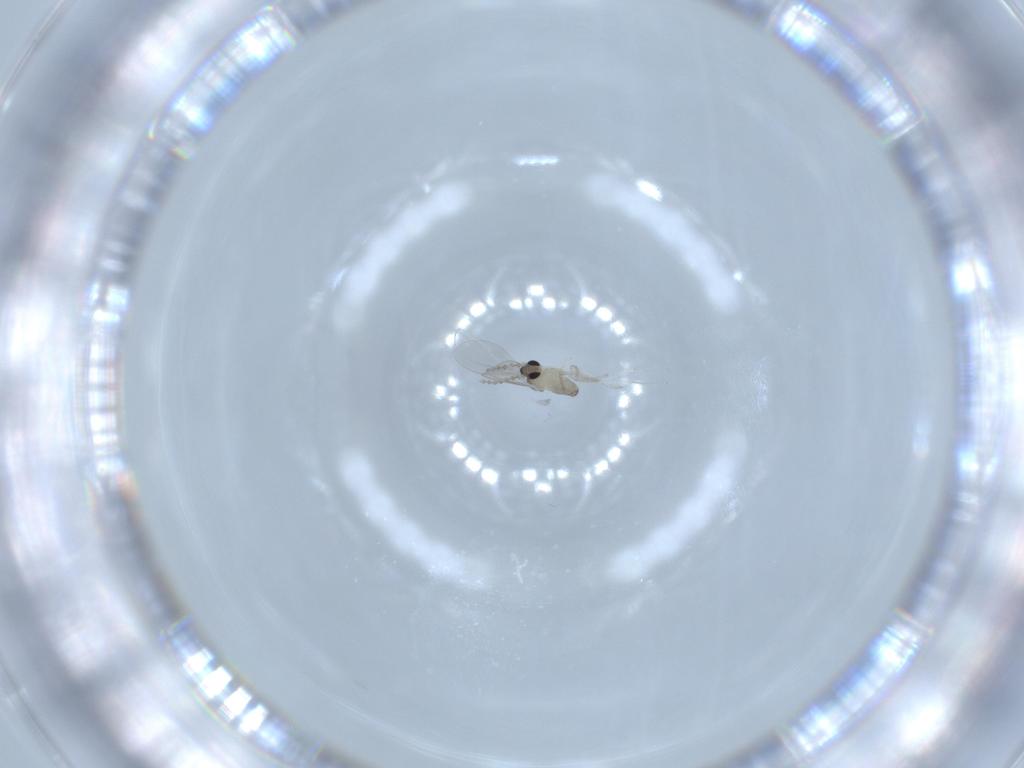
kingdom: Animalia
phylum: Arthropoda
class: Insecta
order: Diptera
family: Cecidomyiidae
